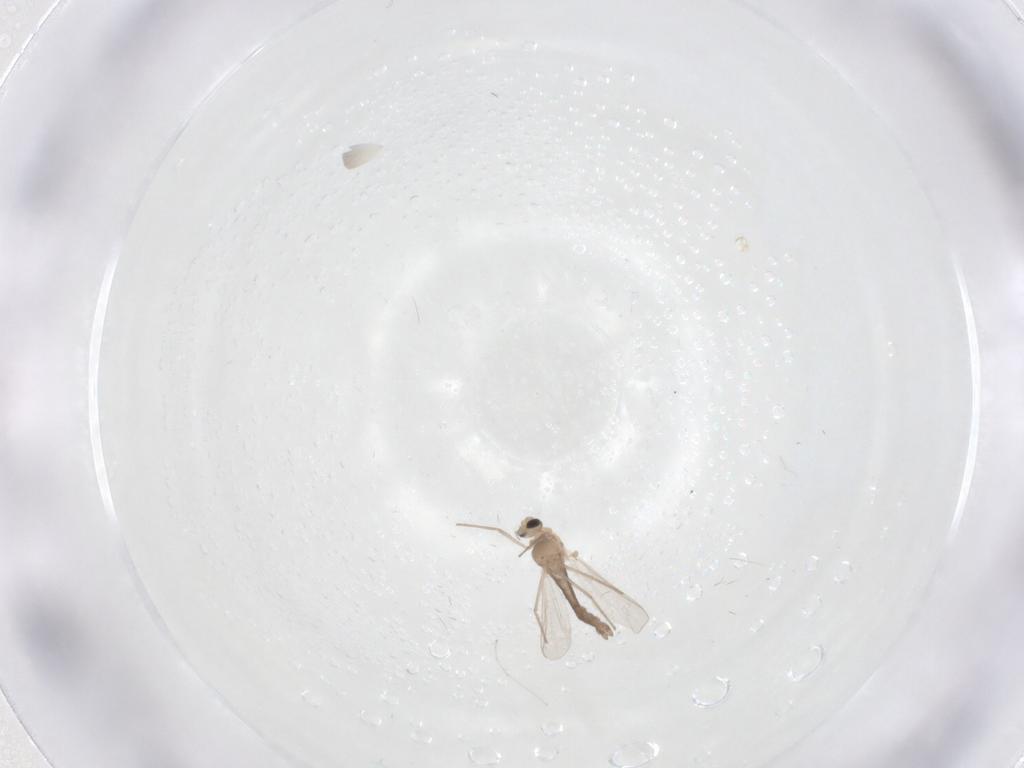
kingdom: Animalia
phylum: Arthropoda
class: Insecta
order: Diptera
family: Chironomidae
